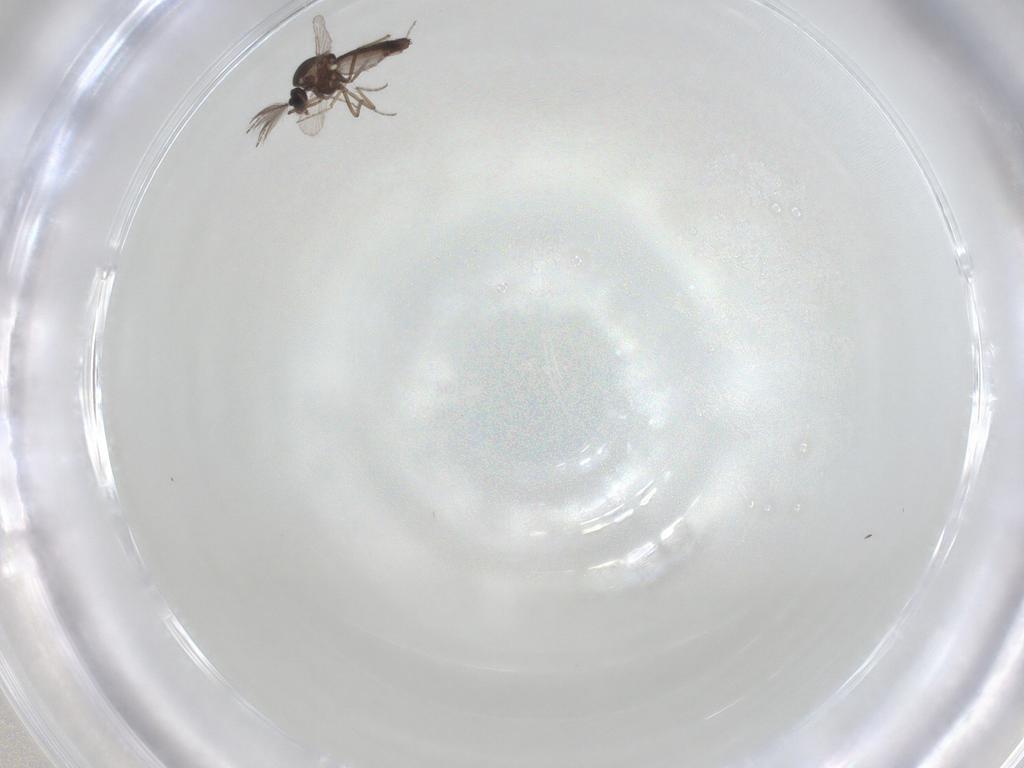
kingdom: Animalia
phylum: Arthropoda
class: Insecta
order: Diptera
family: Ceratopogonidae
